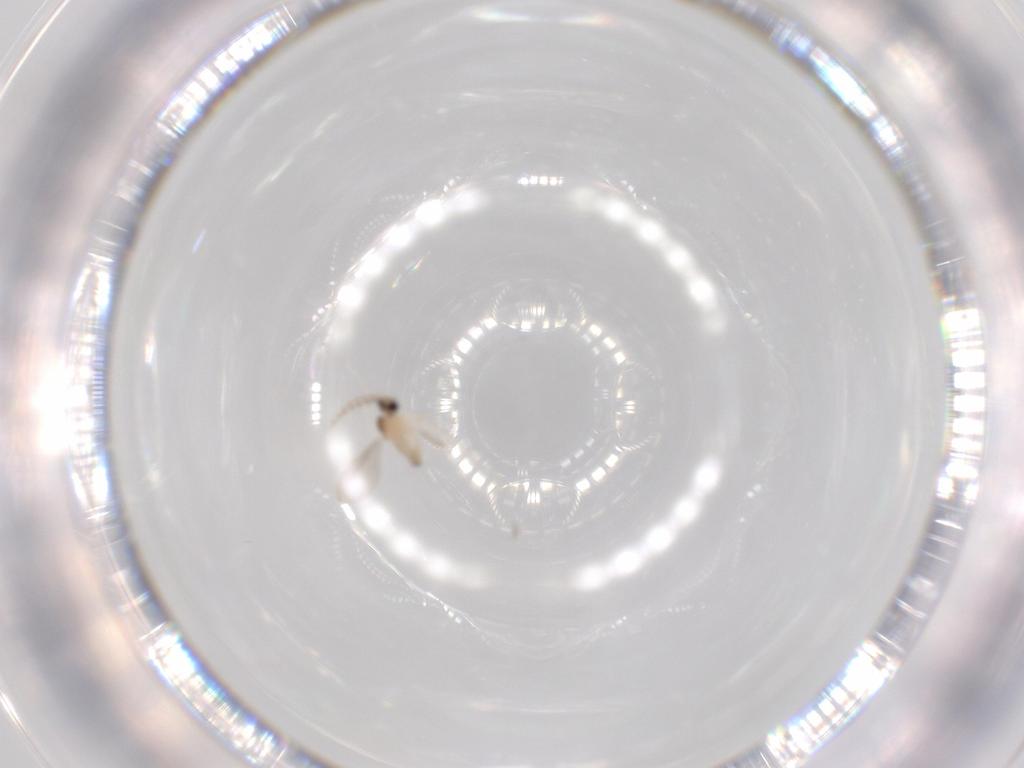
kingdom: Animalia
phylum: Arthropoda
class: Insecta
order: Diptera
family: Cecidomyiidae
